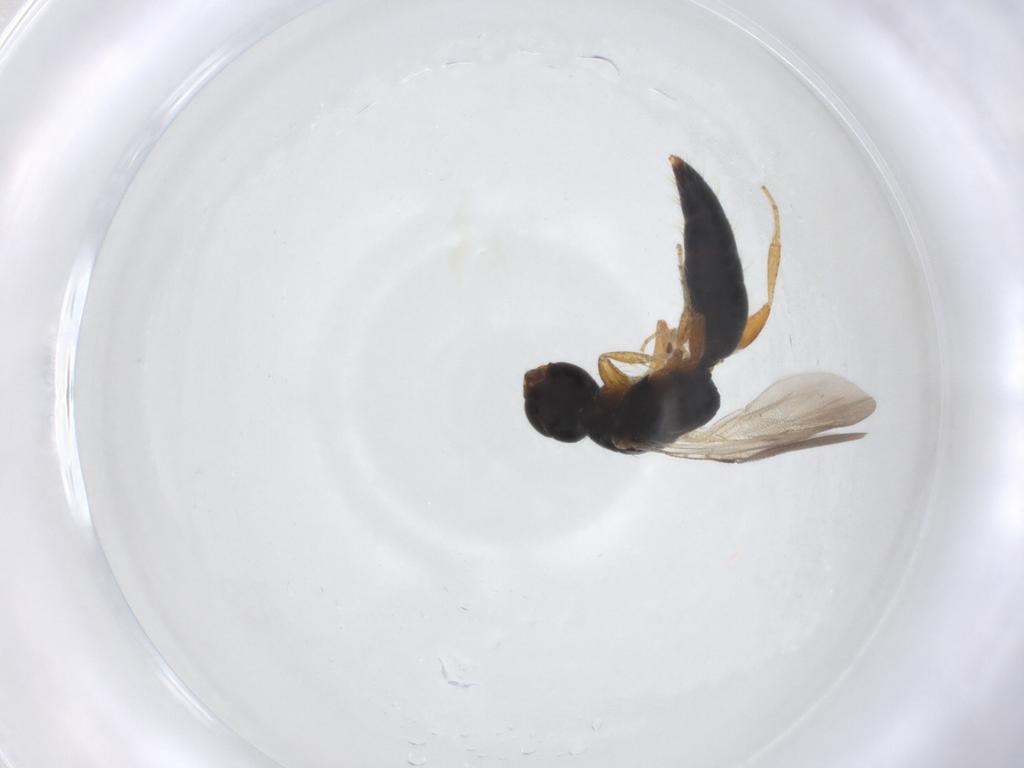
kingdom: Animalia
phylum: Arthropoda
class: Insecta
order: Hymenoptera
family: Bethylidae
